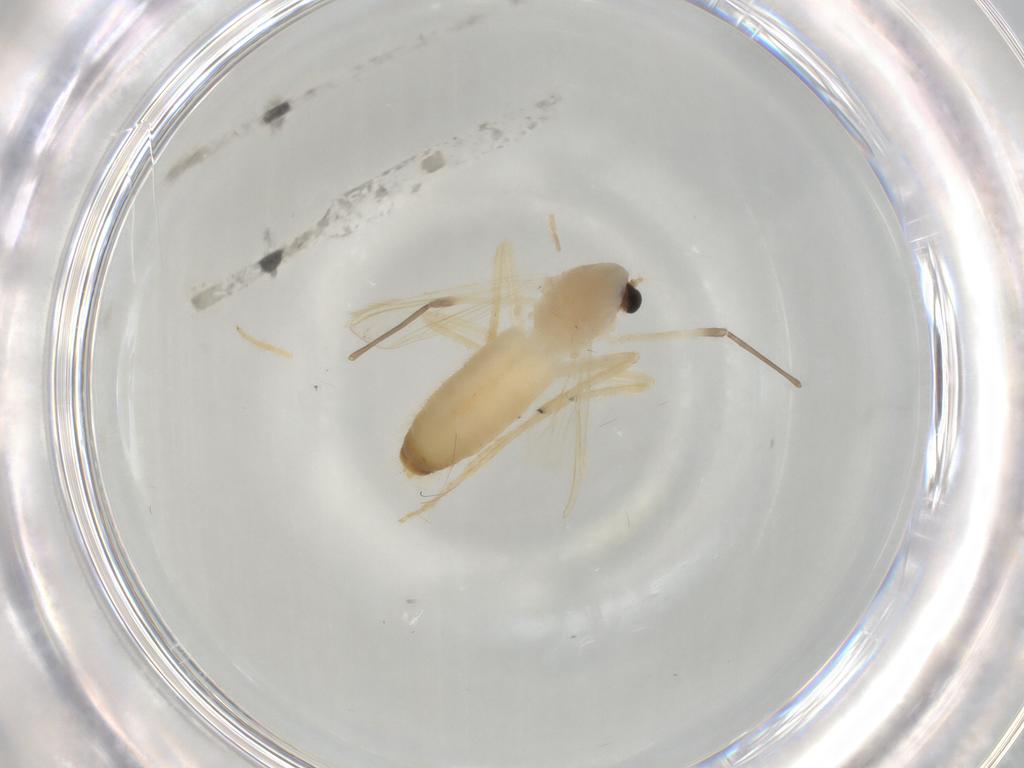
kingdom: Animalia
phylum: Arthropoda
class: Insecta
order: Diptera
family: Chironomidae
